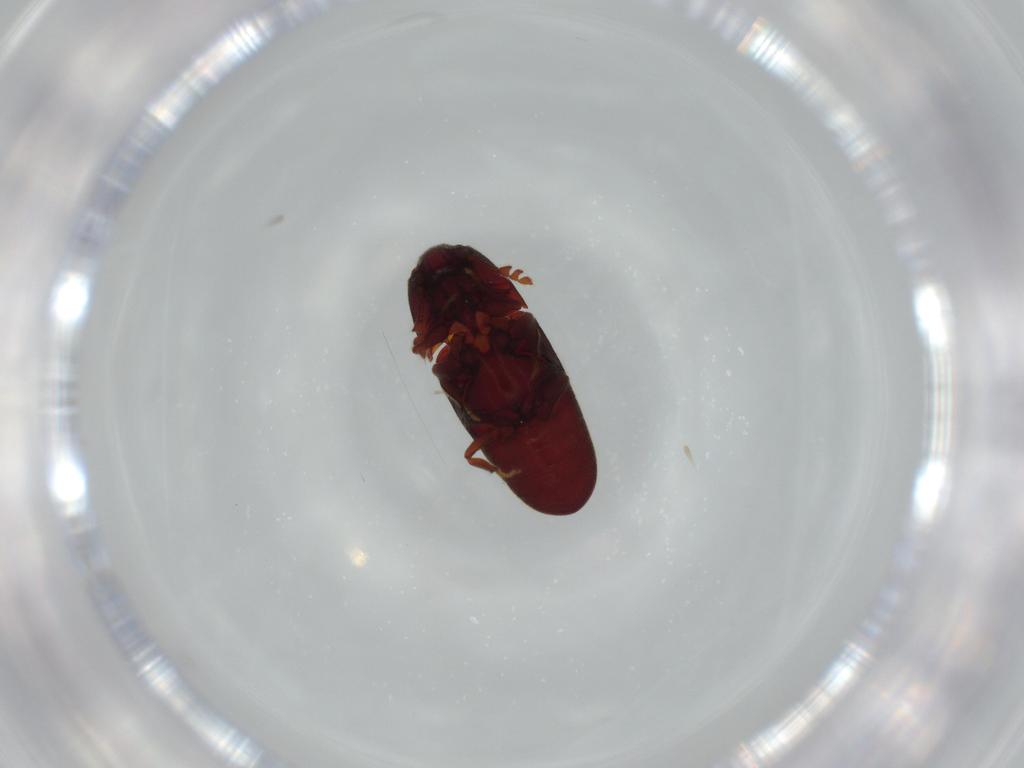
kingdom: Animalia
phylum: Arthropoda
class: Insecta
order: Coleoptera
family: Throscidae
